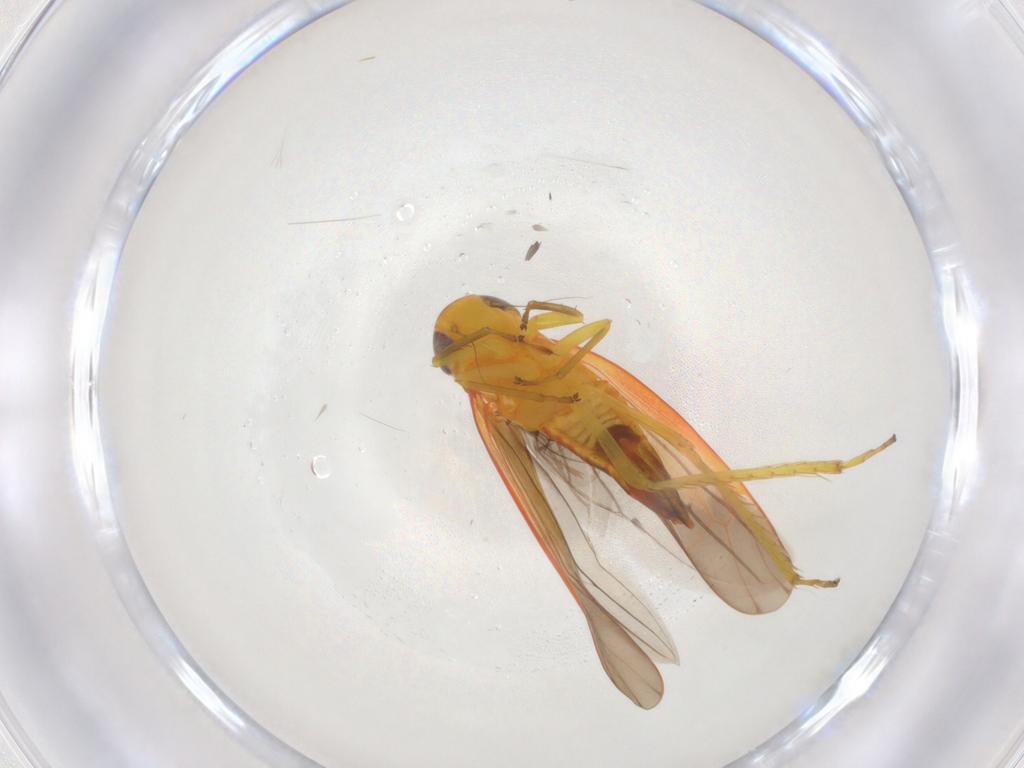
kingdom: Animalia
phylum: Arthropoda
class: Insecta
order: Hemiptera
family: Cicadellidae
